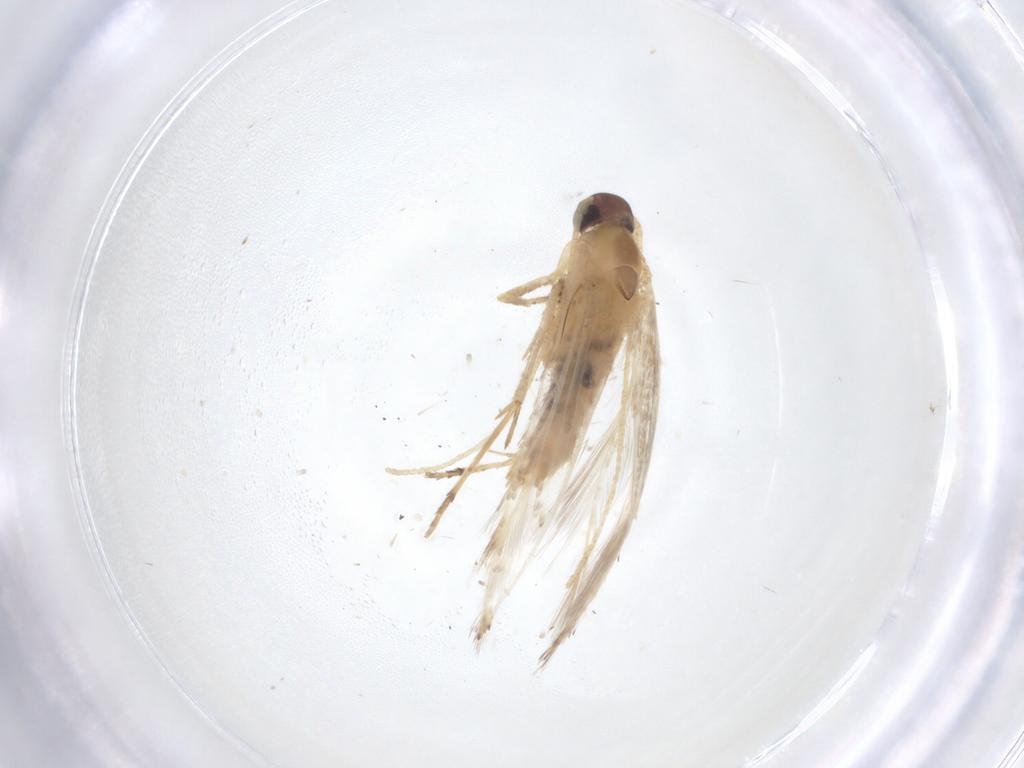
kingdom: Animalia
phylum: Arthropoda
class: Insecta
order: Lepidoptera
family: Gelechiidae
